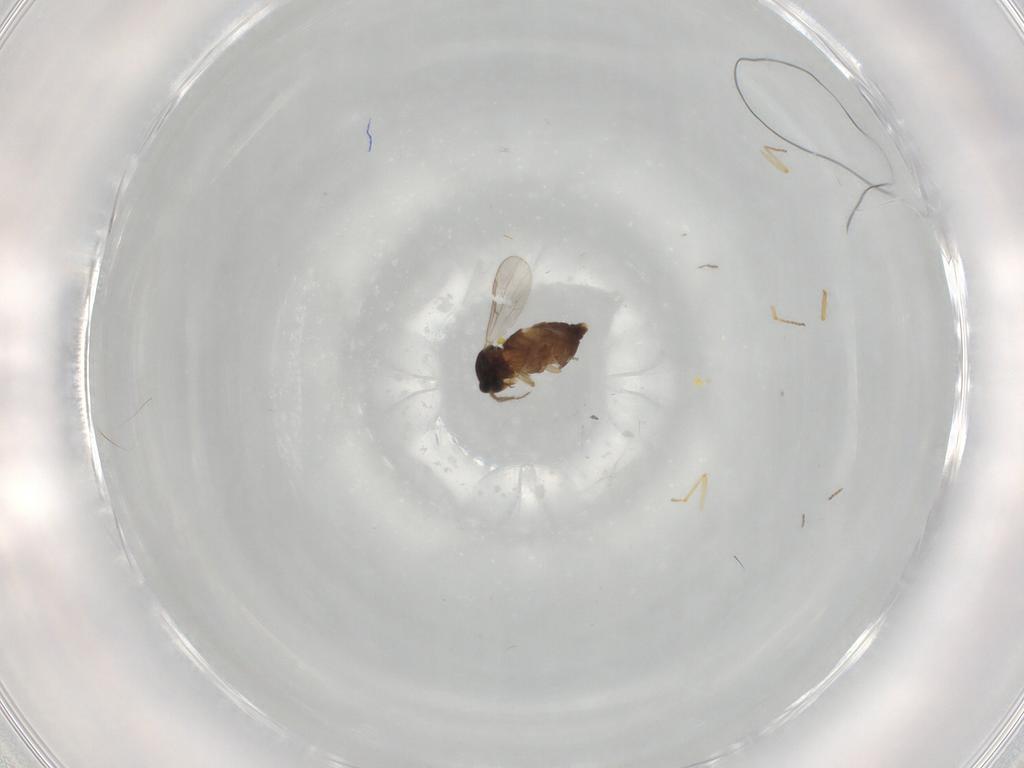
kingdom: Animalia
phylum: Arthropoda
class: Insecta
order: Diptera
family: Ceratopogonidae
